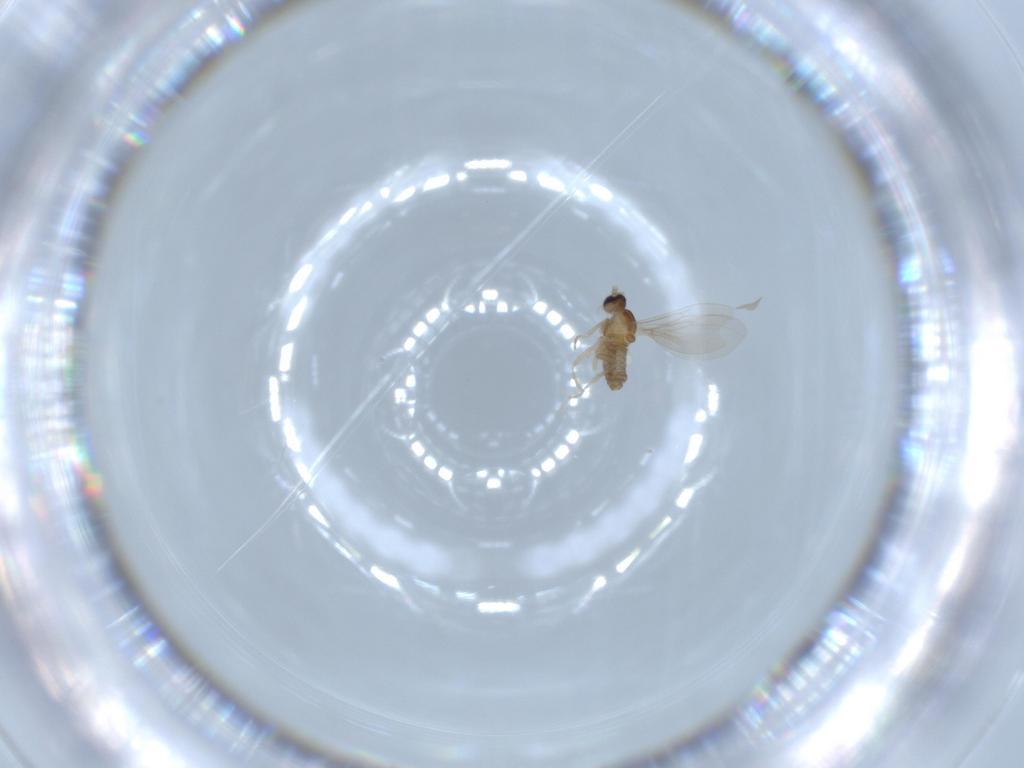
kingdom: Animalia
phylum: Arthropoda
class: Insecta
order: Diptera
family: Cecidomyiidae
